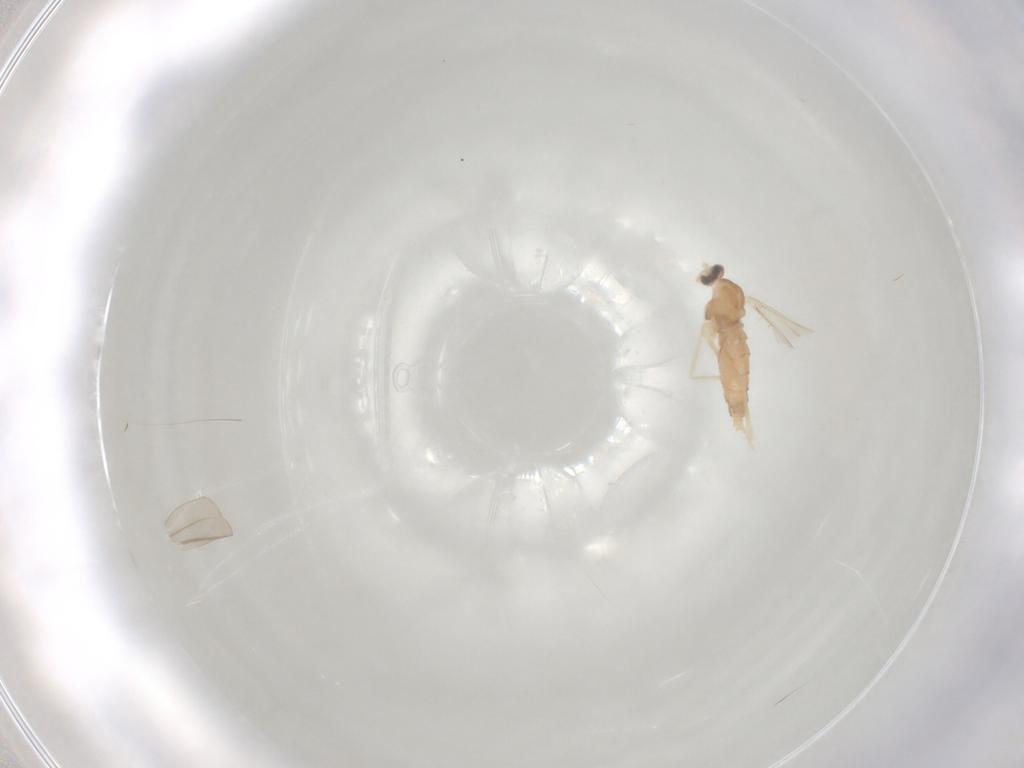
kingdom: Animalia
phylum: Arthropoda
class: Insecta
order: Diptera
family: Cecidomyiidae
